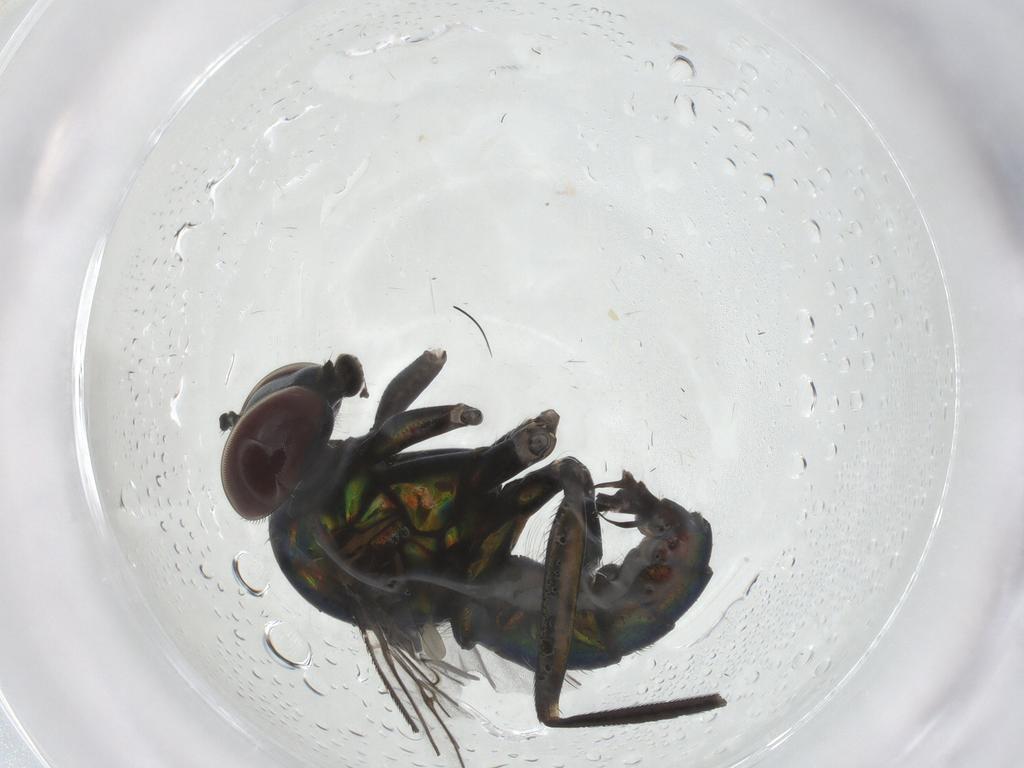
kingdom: Animalia
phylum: Arthropoda
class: Insecta
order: Diptera
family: Dolichopodidae
